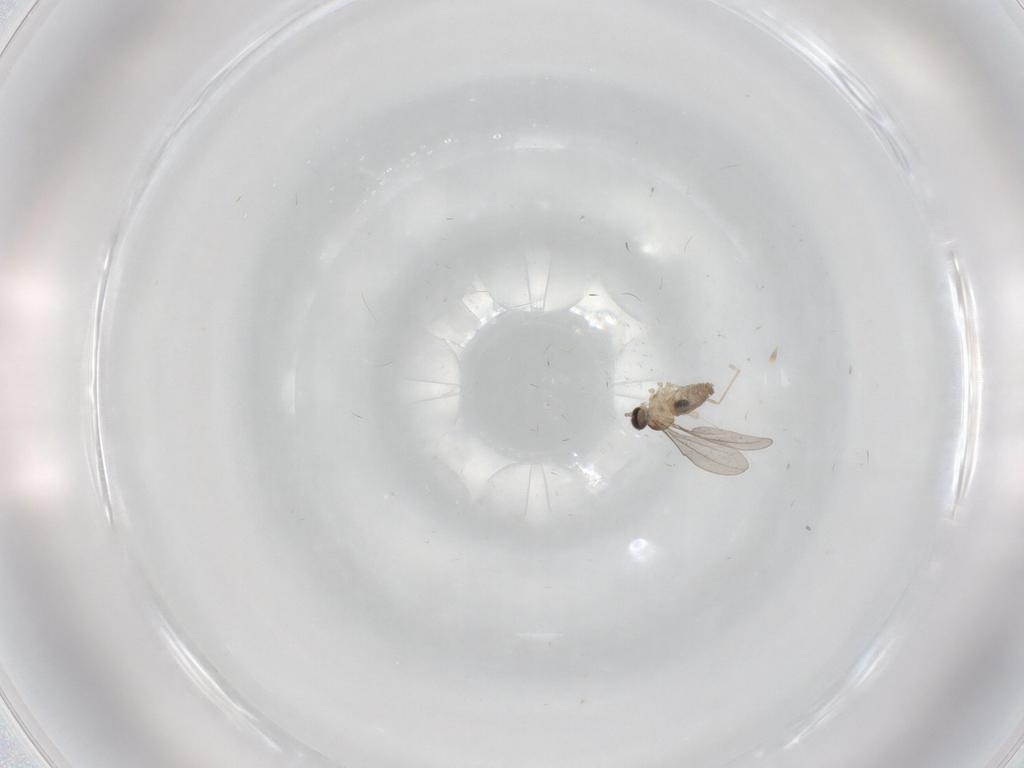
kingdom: Animalia
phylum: Arthropoda
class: Insecta
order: Diptera
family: Cecidomyiidae
